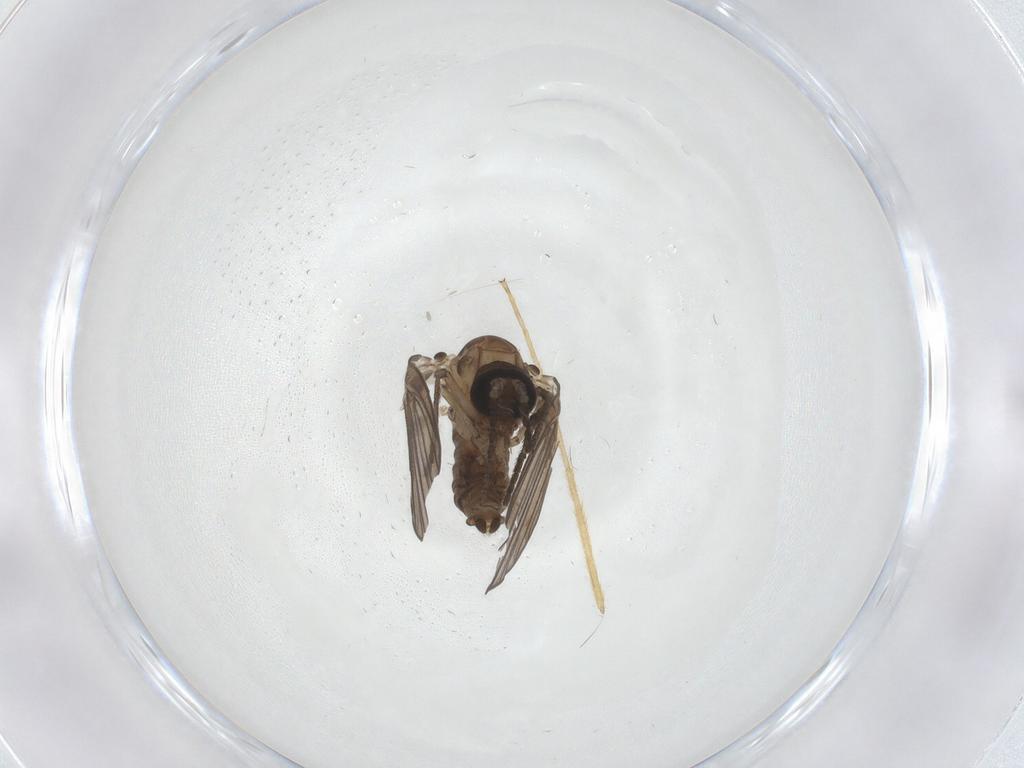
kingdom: Animalia
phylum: Arthropoda
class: Insecta
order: Diptera
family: Psychodidae
